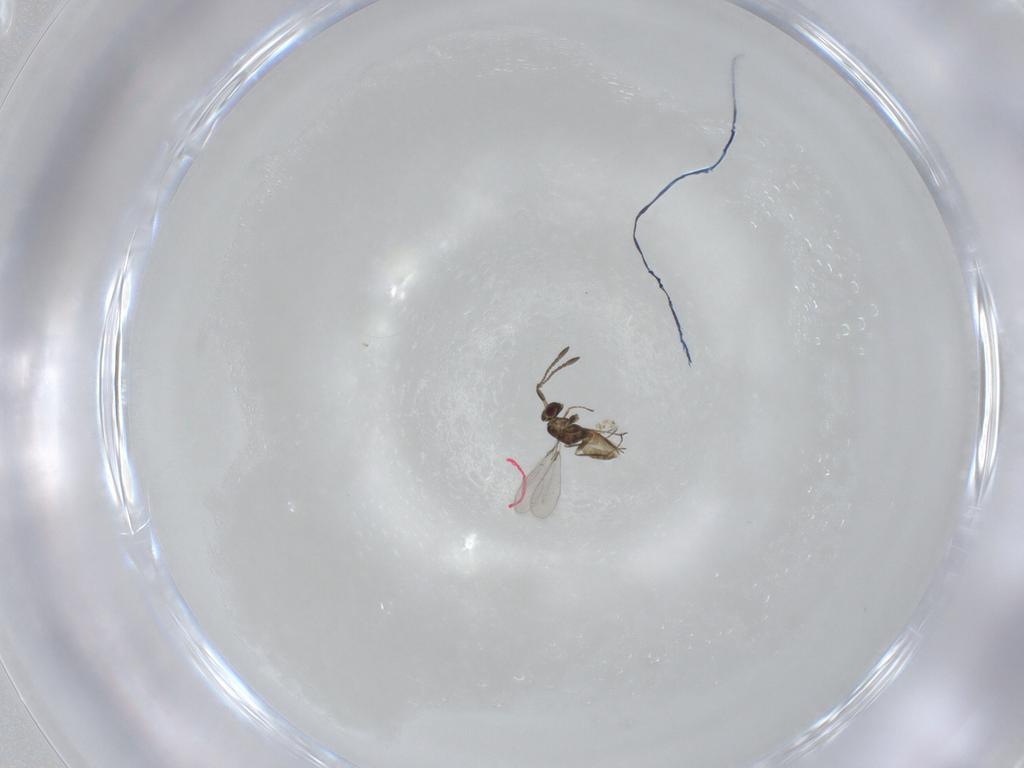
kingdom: Animalia
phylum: Arthropoda
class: Insecta
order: Hymenoptera
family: Mymaridae
